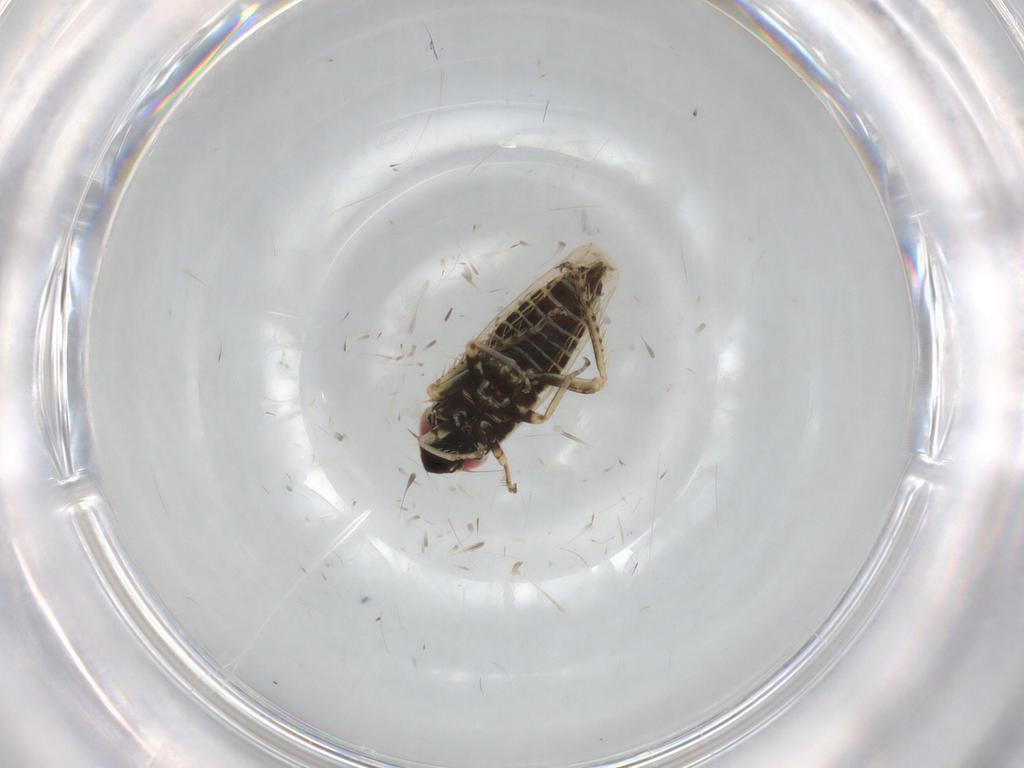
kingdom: Animalia
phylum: Arthropoda
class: Insecta
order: Hemiptera
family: Cicadellidae
